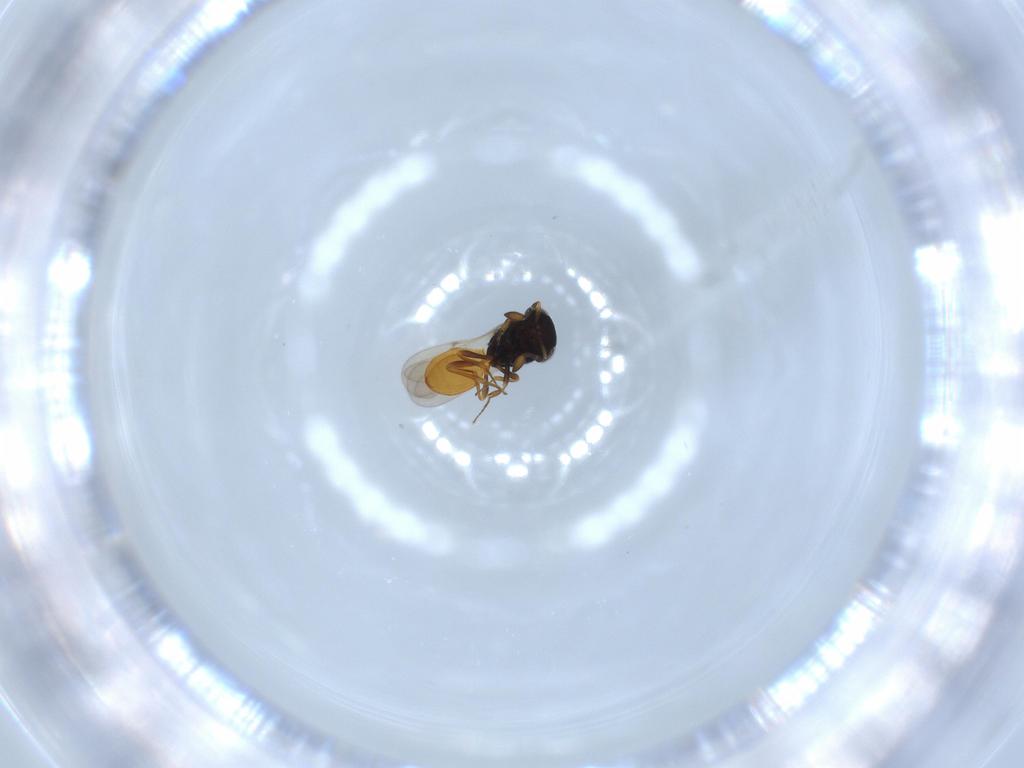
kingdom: Animalia
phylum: Arthropoda
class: Insecta
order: Hymenoptera
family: Scelionidae
